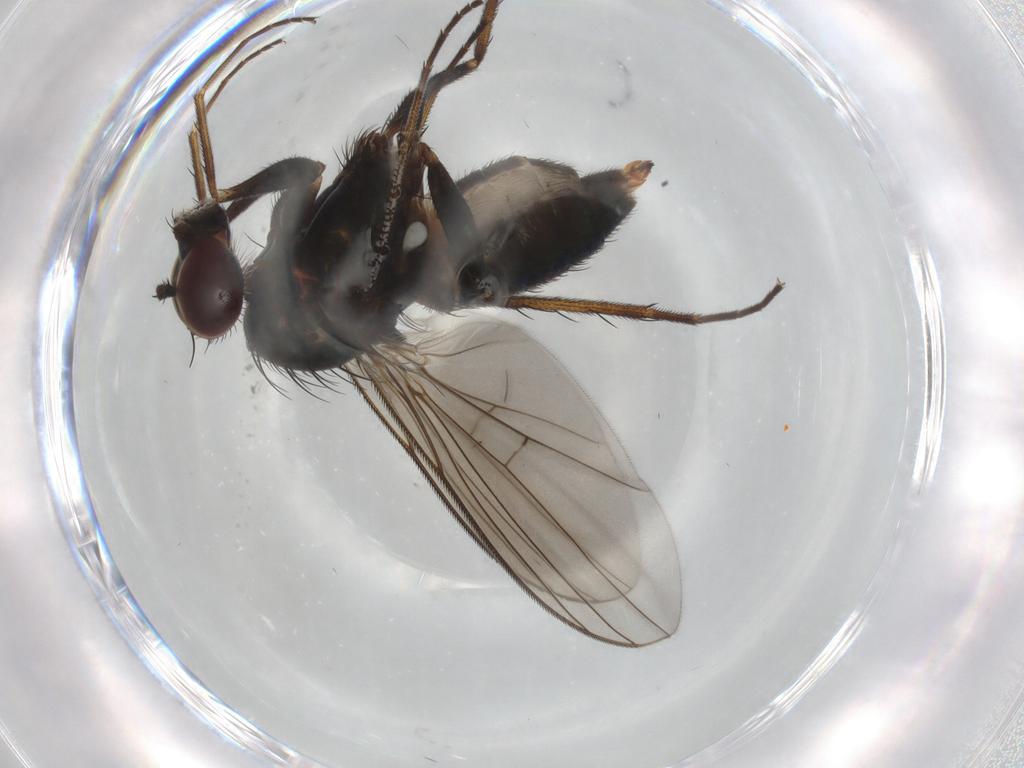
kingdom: Animalia
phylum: Arthropoda
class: Insecta
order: Diptera
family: Dolichopodidae
